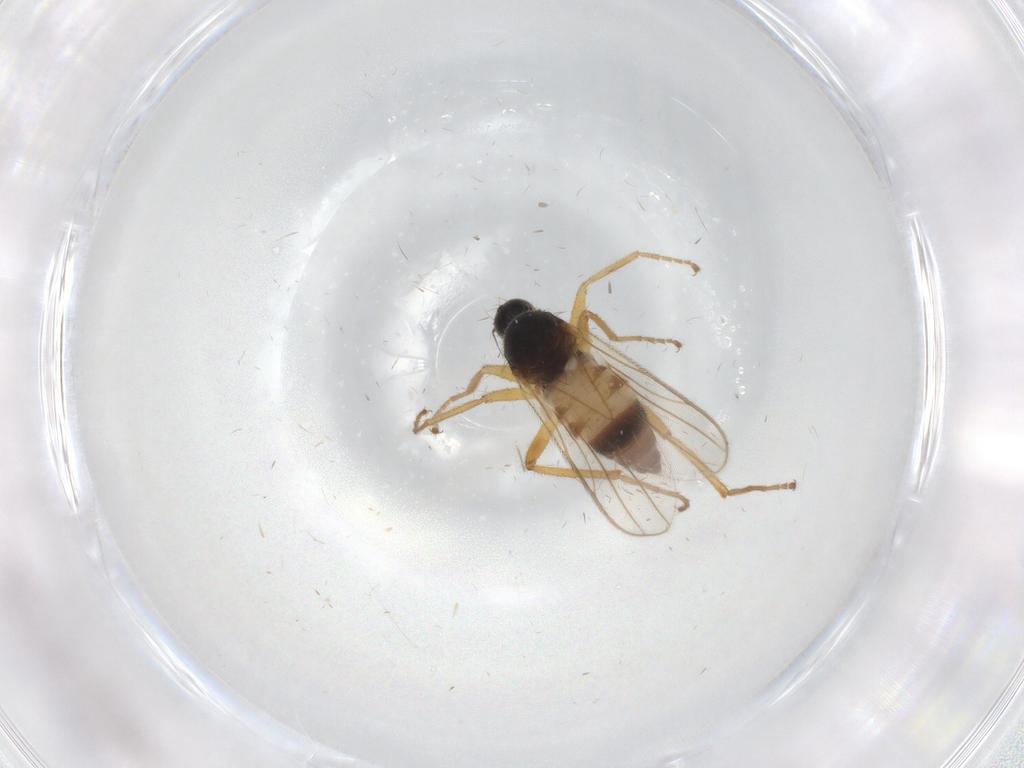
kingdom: Animalia
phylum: Arthropoda
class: Insecta
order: Diptera
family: Hybotidae
